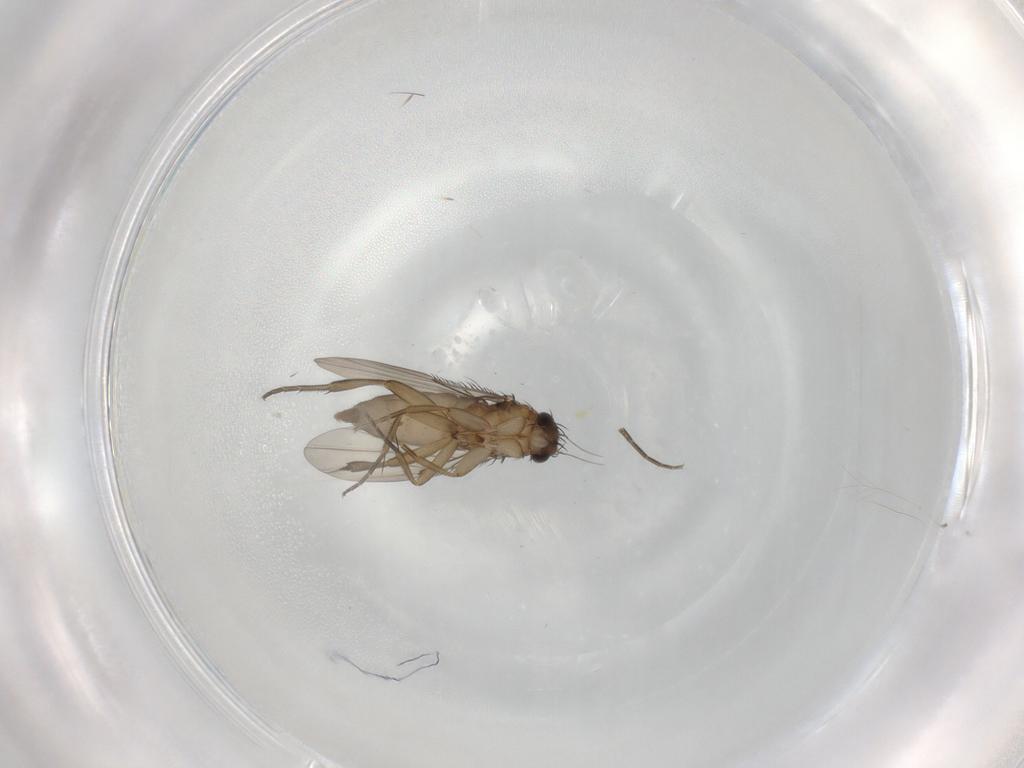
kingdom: Animalia
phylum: Arthropoda
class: Insecta
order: Diptera
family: Phoridae
